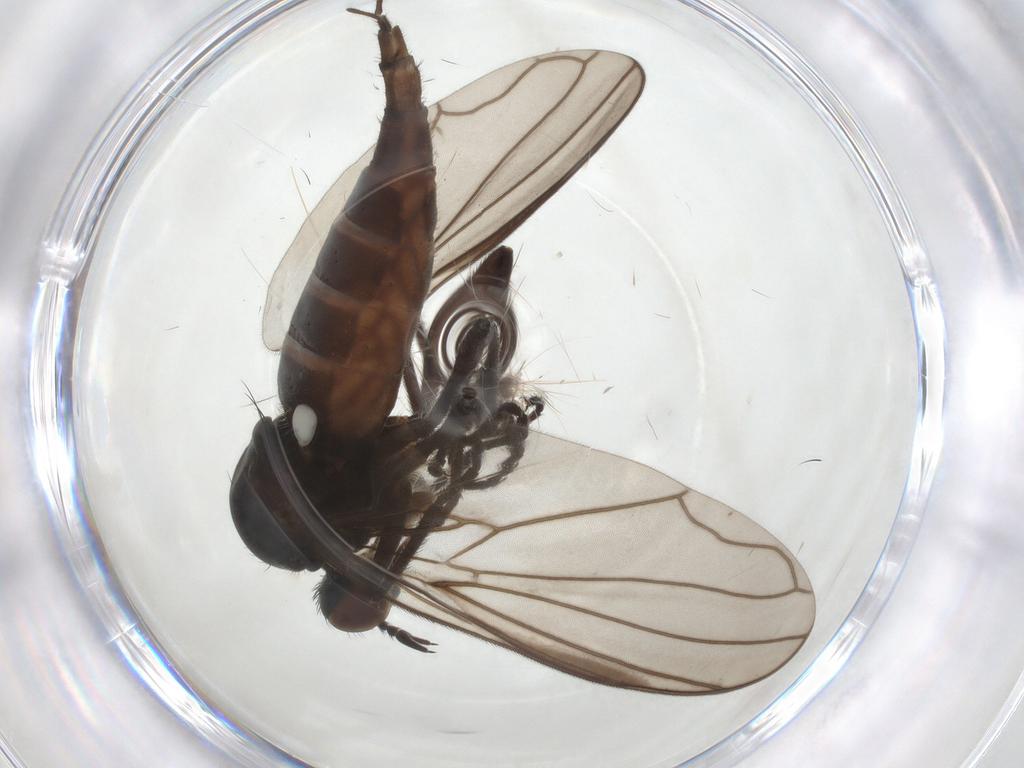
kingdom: Animalia
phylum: Arthropoda
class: Insecta
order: Diptera
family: Empididae
